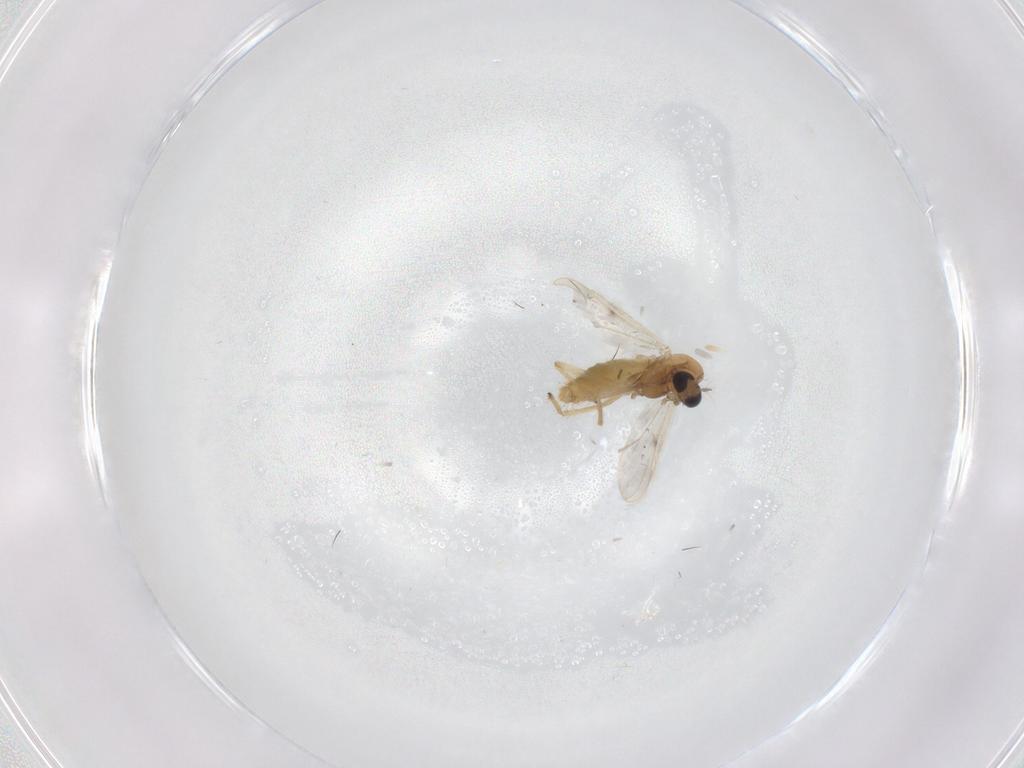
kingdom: Animalia
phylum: Arthropoda
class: Insecta
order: Diptera
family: Chironomidae
